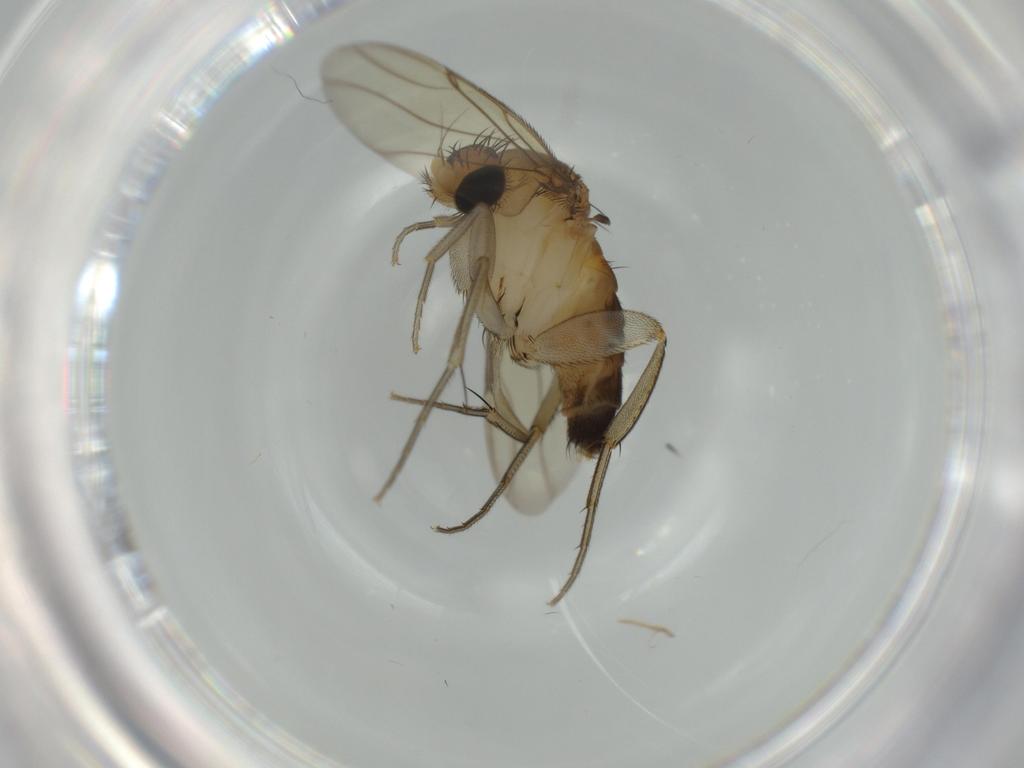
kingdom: Animalia
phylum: Arthropoda
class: Insecta
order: Diptera
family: Phoridae
